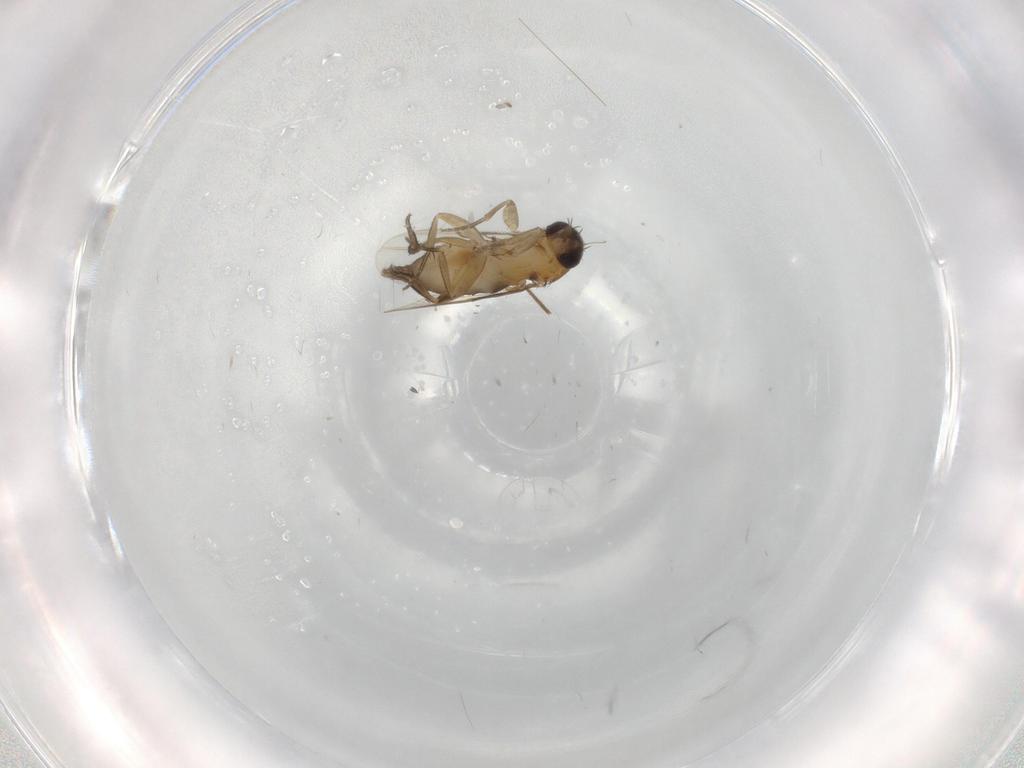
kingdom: Animalia
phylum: Arthropoda
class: Insecta
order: Diptera
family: Phoridae
